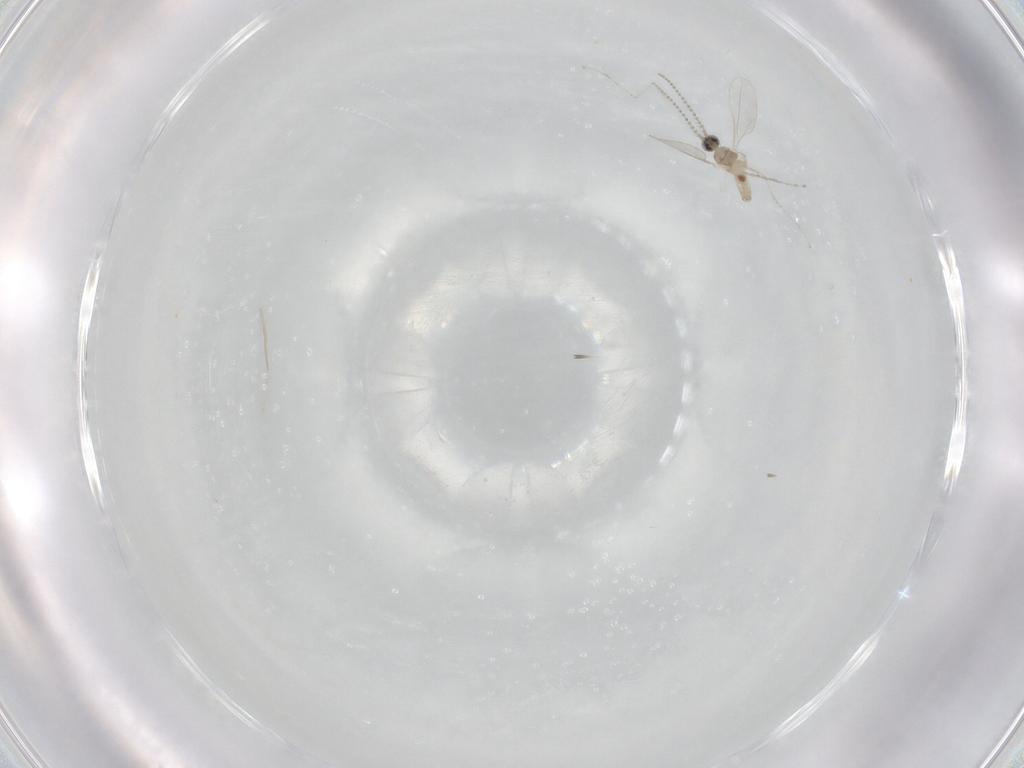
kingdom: Animalia
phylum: Arthropoda
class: Insecta
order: Diptera
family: Cecidomyiidae
